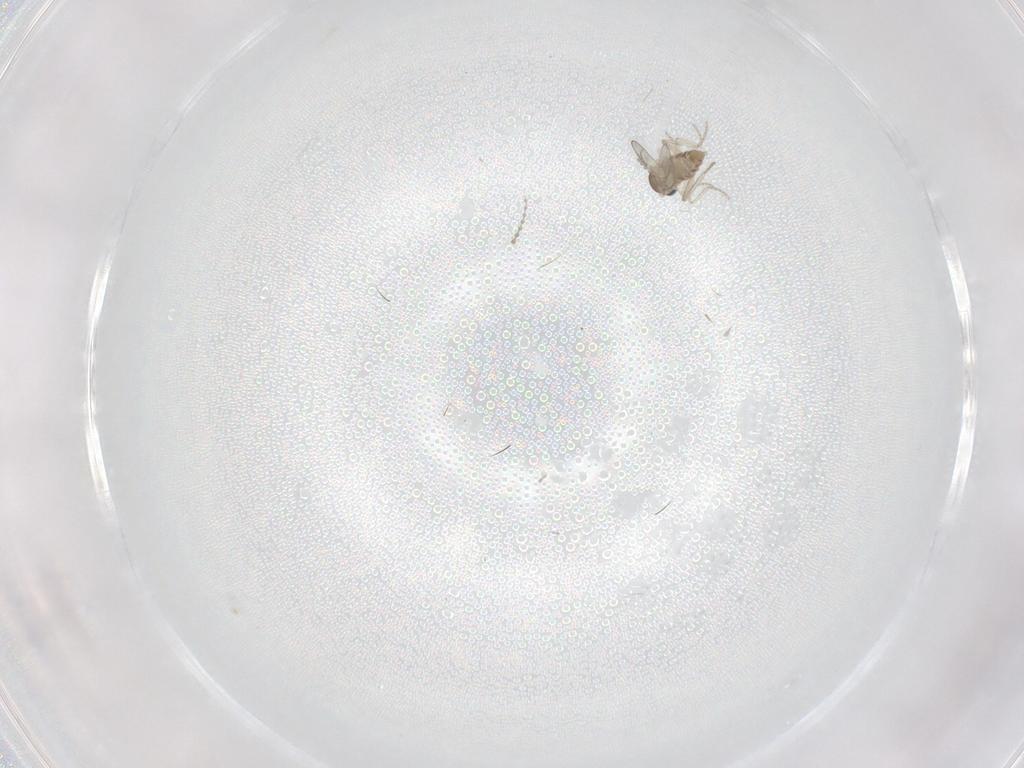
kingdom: Animalia
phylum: Arthropoda
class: Insecta
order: Diptera
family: Cecidomyiidae
